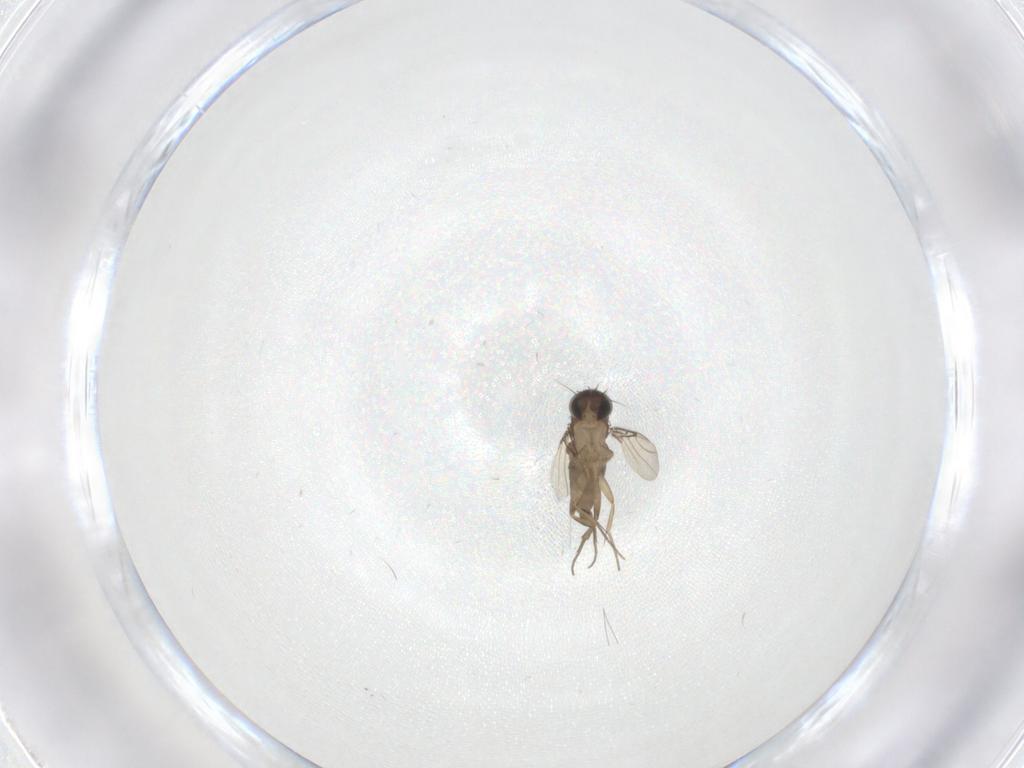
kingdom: Animalia
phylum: Arthropoda
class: Insecta
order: Diptera
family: Phoridae
